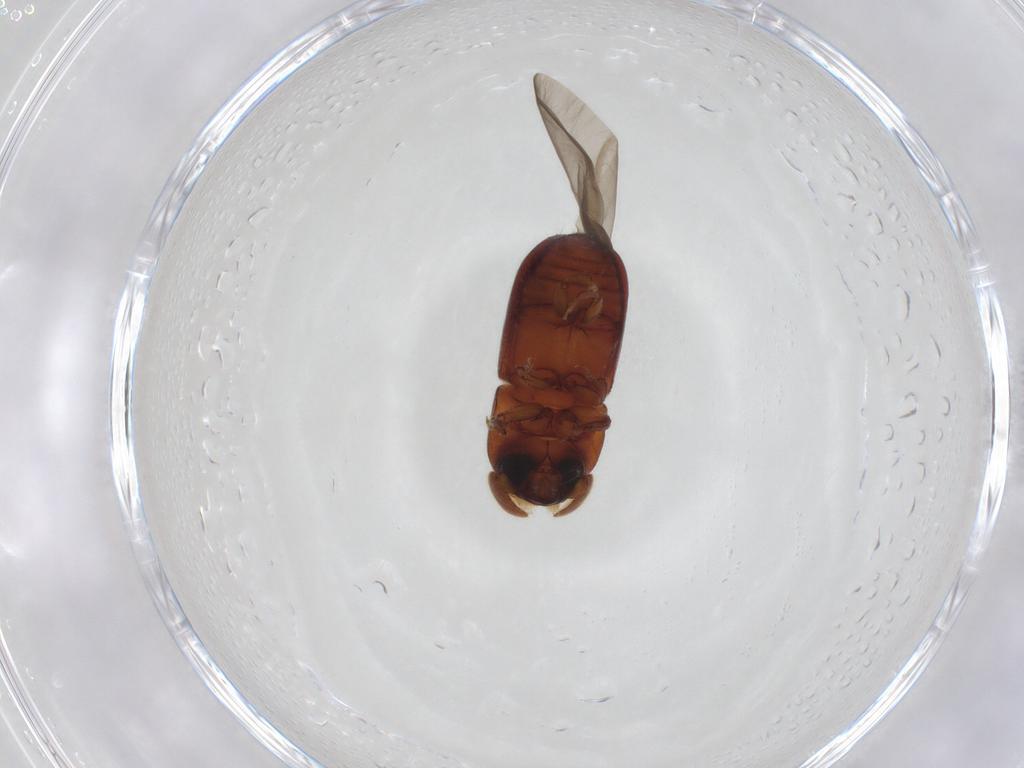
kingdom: Animalia
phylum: Arthropoda
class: Insecta
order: Coleoptera
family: Curculionidae
